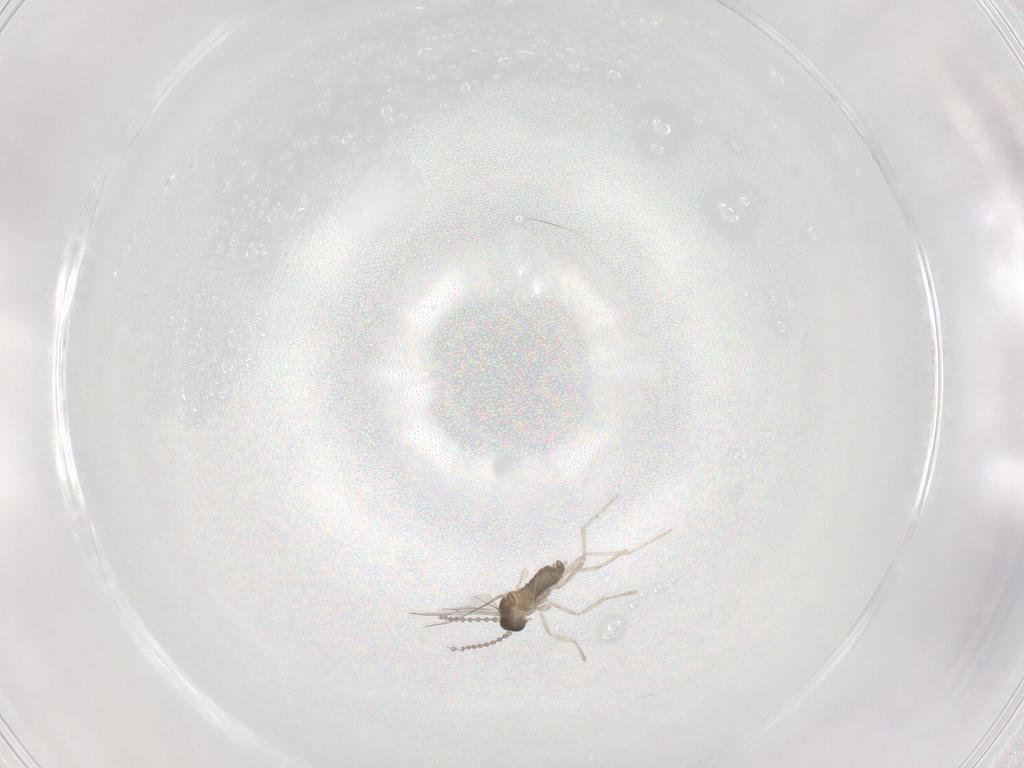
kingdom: Animalia
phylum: Arthropoda
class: Insecta
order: Diptera
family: Chironomidae
